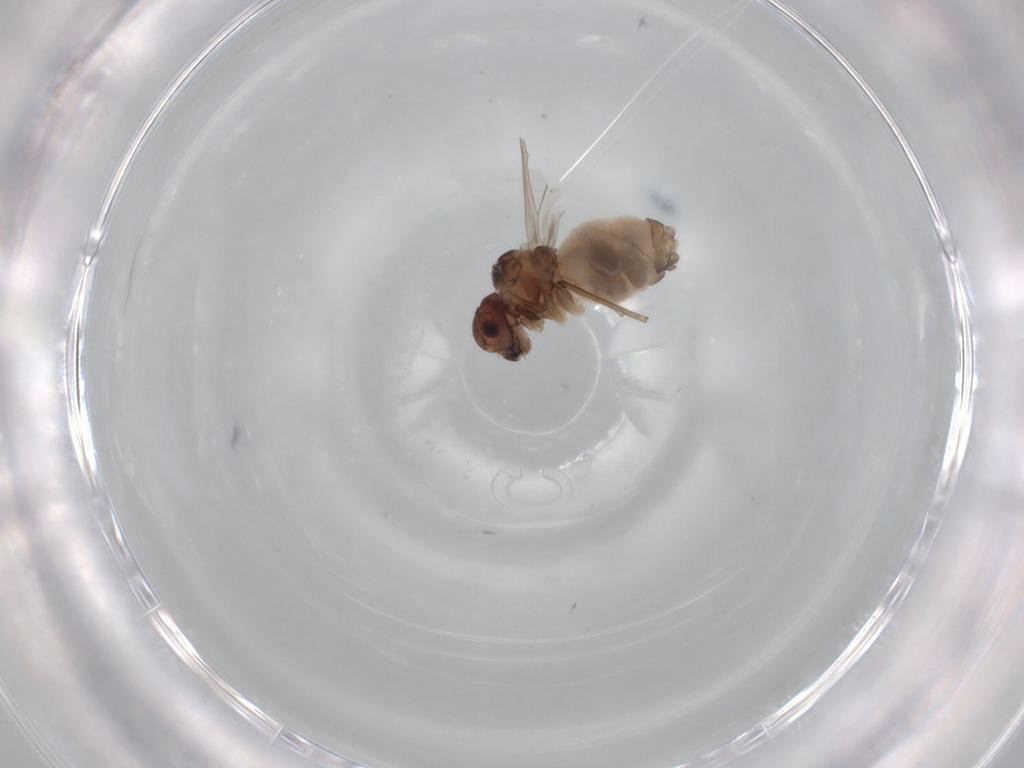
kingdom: Animalia
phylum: Arthropoda
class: Insecta
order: Psocodea
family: Peripsocidae
